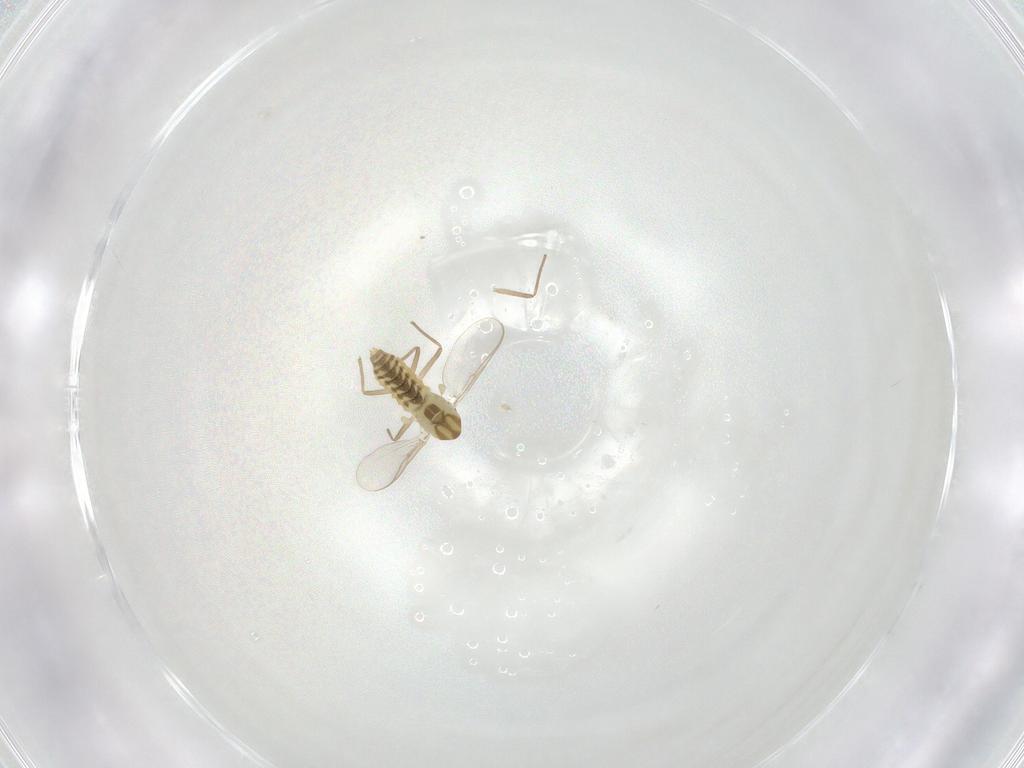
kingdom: Animalia
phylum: Arthropoda
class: Insecta
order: Diptera
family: Chironomidae
